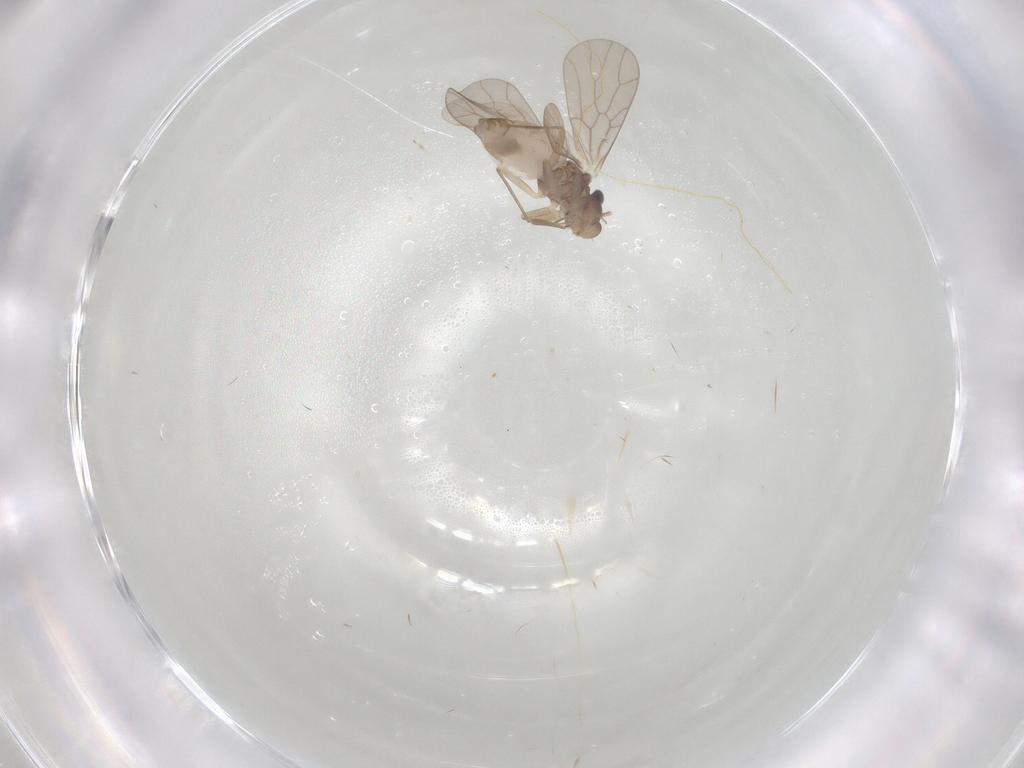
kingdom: Animalia
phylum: Arthropoda
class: Insecta
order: Psocodea
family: Lepidopsocidae
